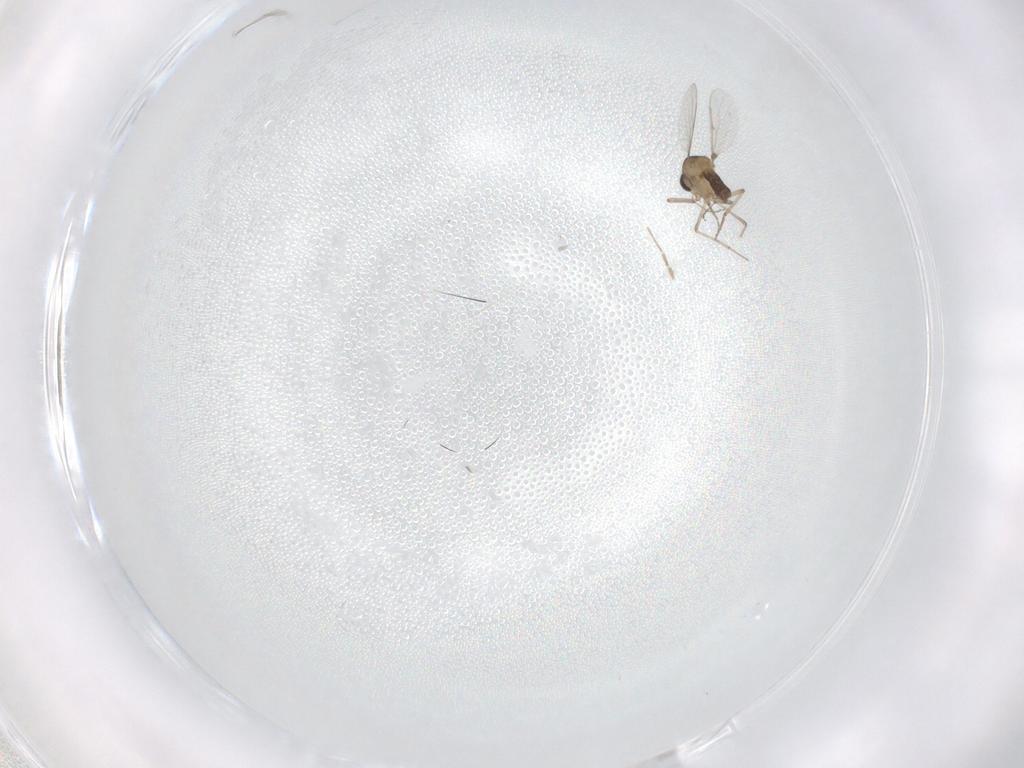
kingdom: Animalia
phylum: Arthropoda
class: Insecta
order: Diptera
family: Ceratopogonidae
